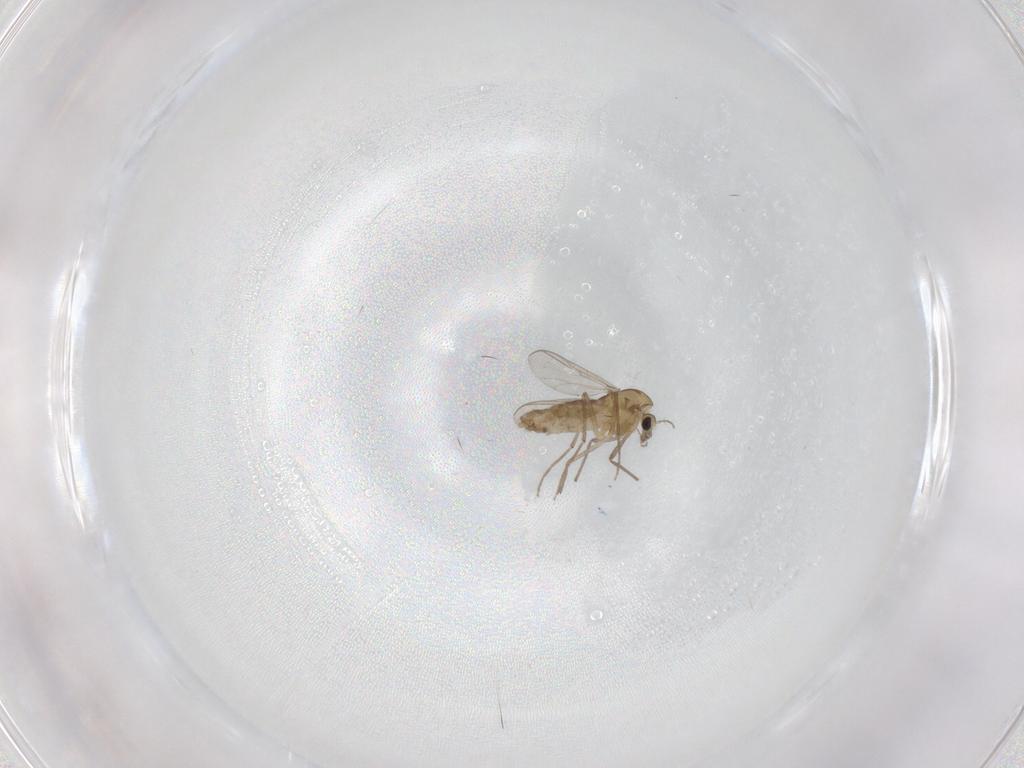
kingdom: Animalia
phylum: Arthropoda
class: Insecta
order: Diptera
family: Chironomidae
